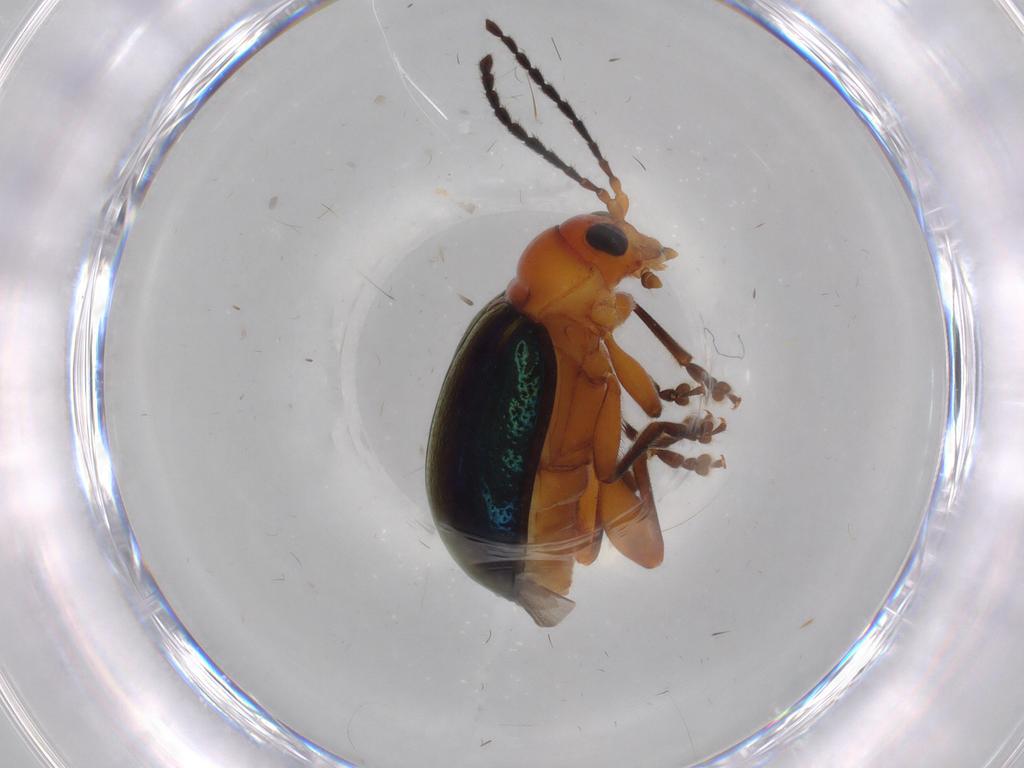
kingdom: Animalia
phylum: Arthropoda
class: Insecta
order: Coleoptera
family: Chrysomelidae
